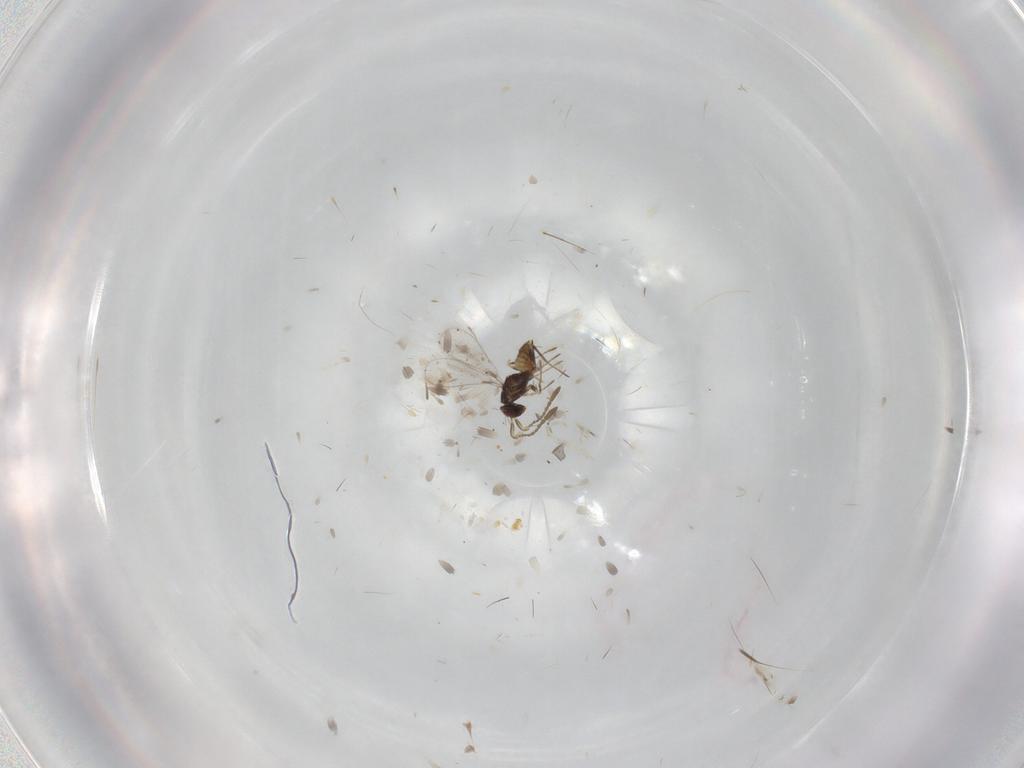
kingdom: Animalia
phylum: Arthropoda
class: Insecta
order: Hymenoptera
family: Mymaridae
